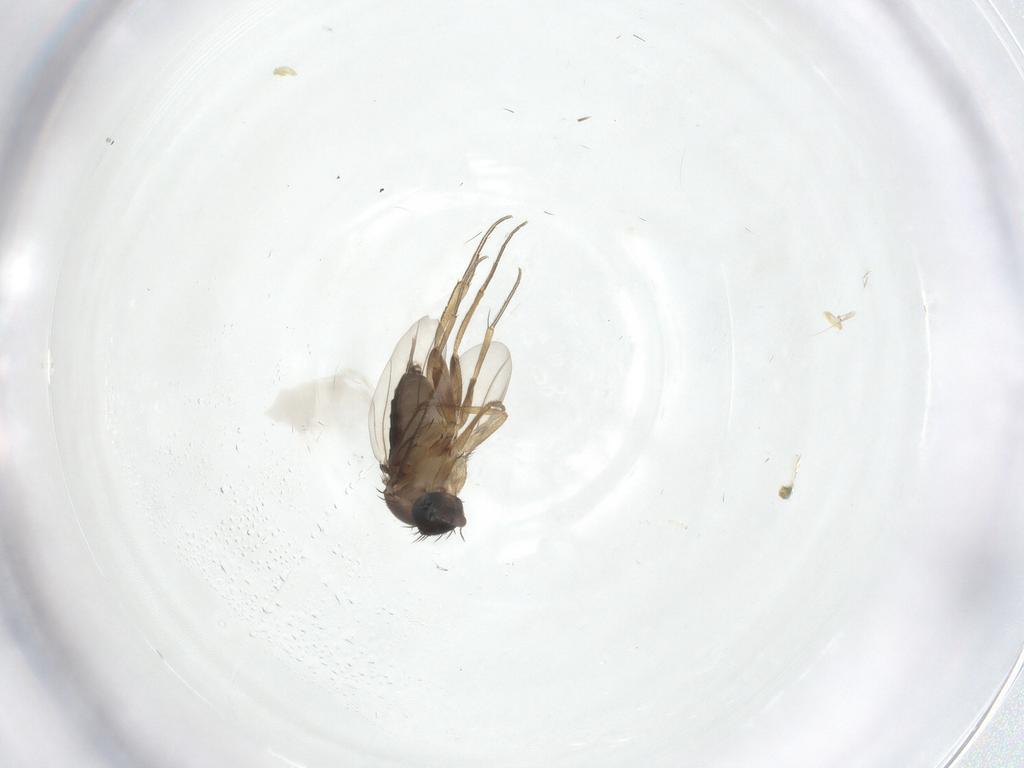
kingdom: Animalia
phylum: Arthropoda
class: Insecta
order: Diptera
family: Phoridae
